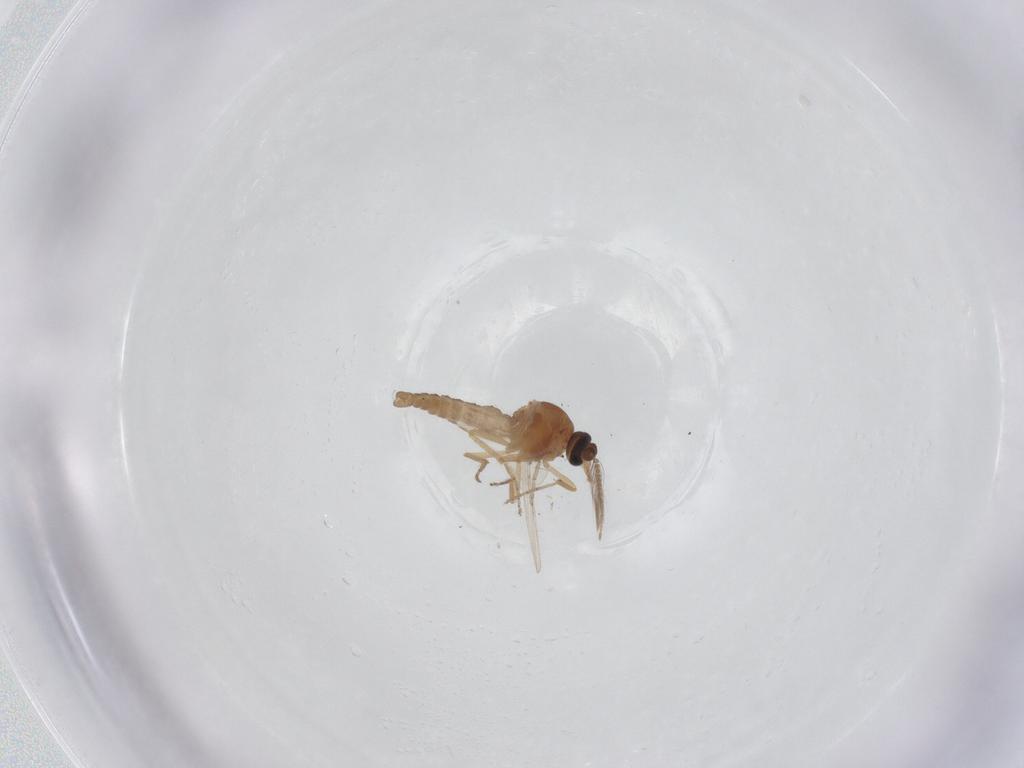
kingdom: Animalia
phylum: Arthropoda
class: Insecta
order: Diptera
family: Ceratopogonidae
